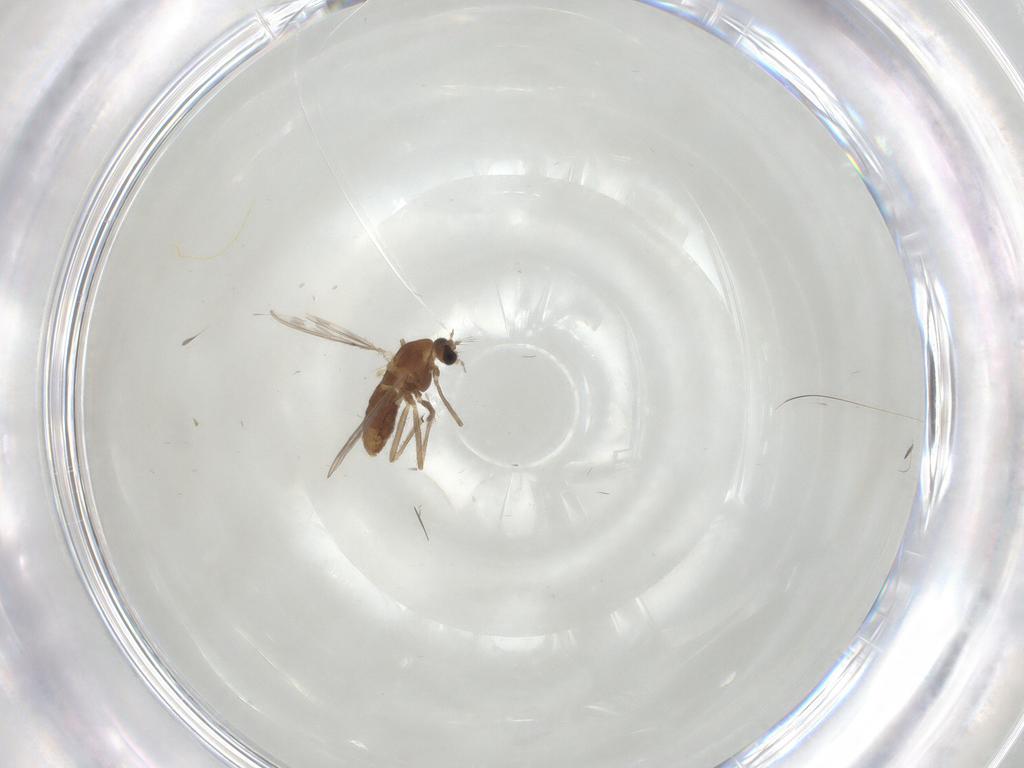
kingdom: Animalia
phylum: Arthropoda
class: Insecta
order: Diptera
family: Chironomidae
